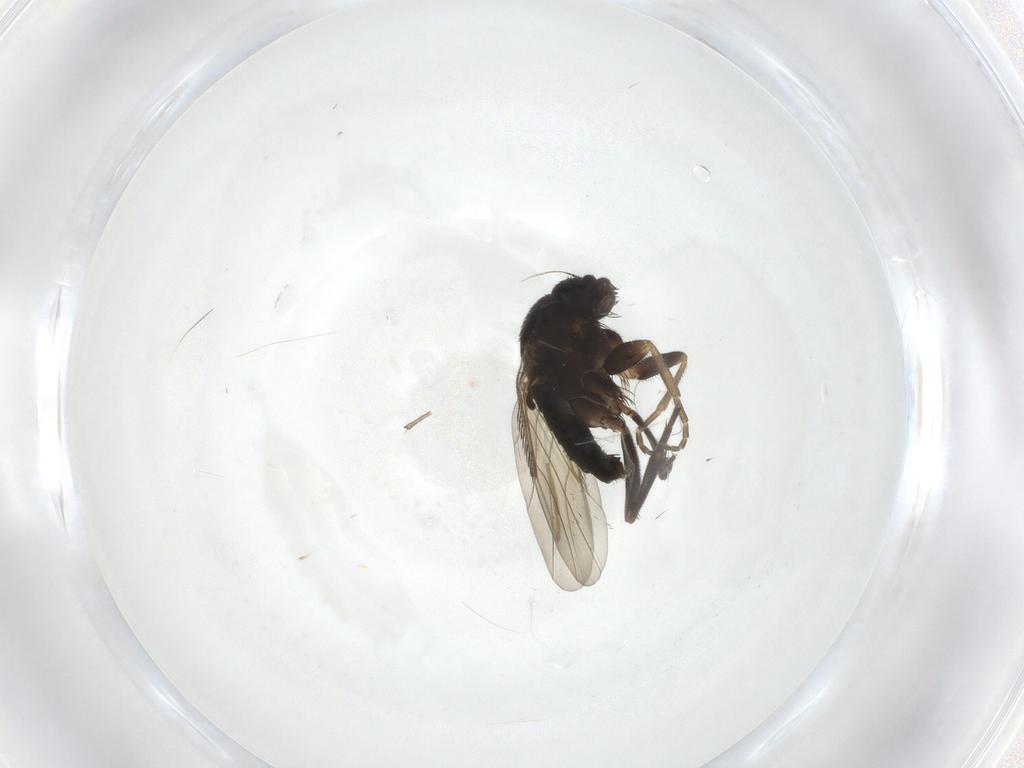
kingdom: Animalia
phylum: Arthropoda
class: Insecta
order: Diptera
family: Phoridae
